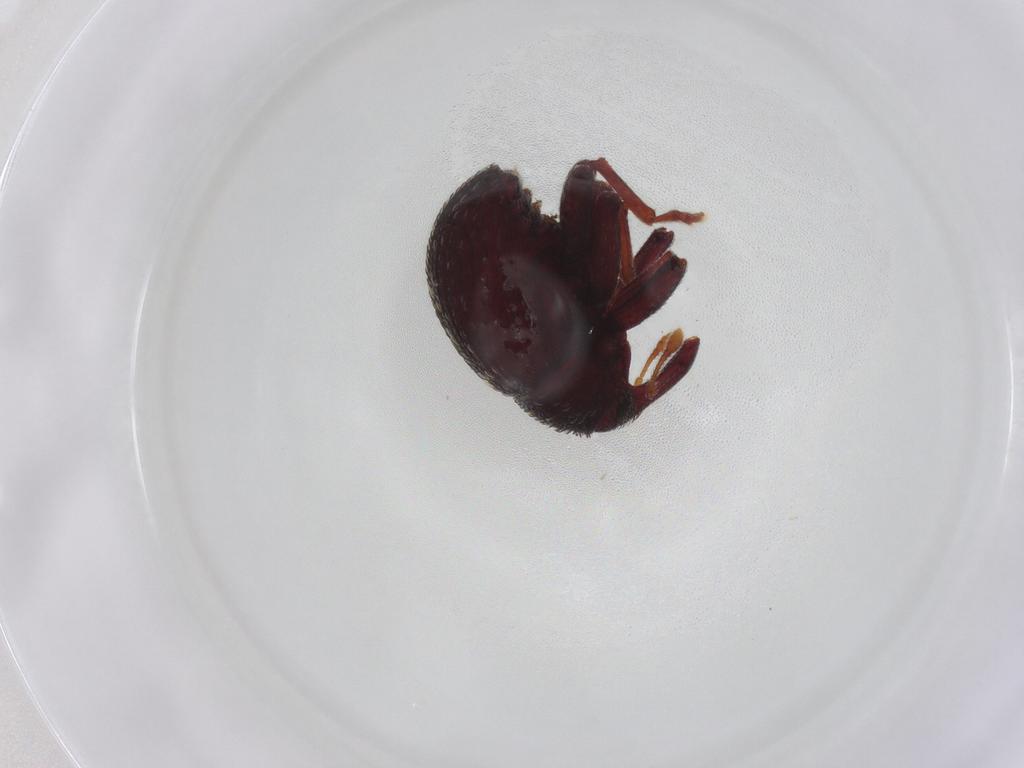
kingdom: Animalia
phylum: Arthropoda
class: Insecta
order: Coleoptera
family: Curculionidae
